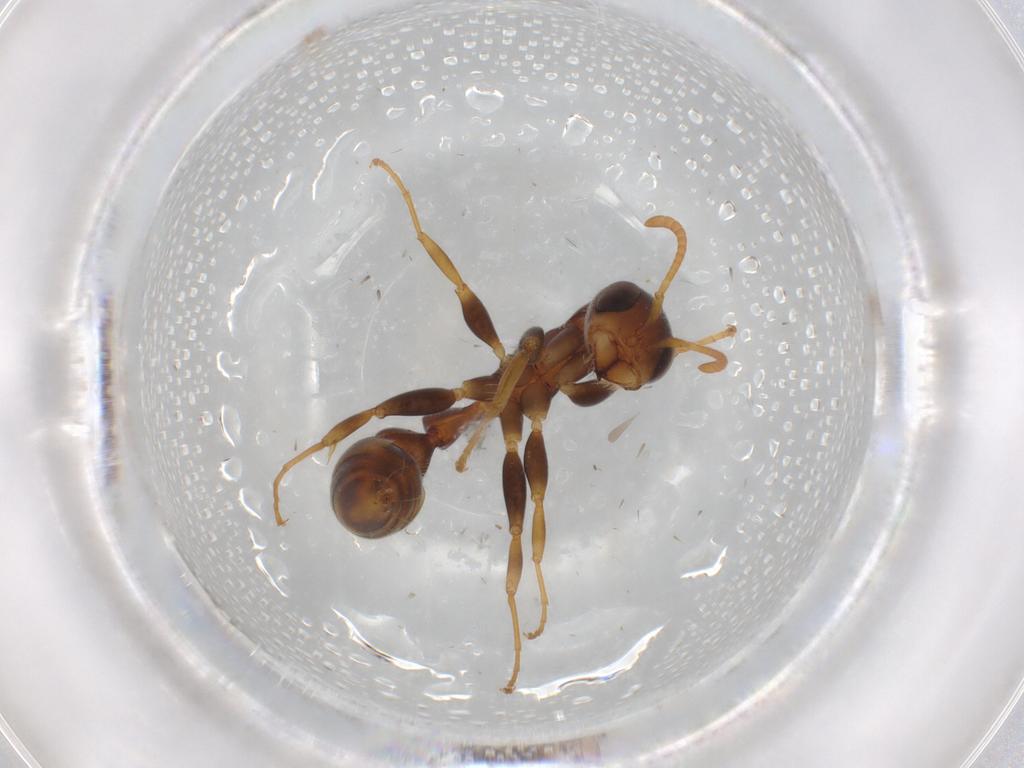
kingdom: Animalia
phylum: Arthropoda
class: Insecta
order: Hymenoptera
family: Formicidae
